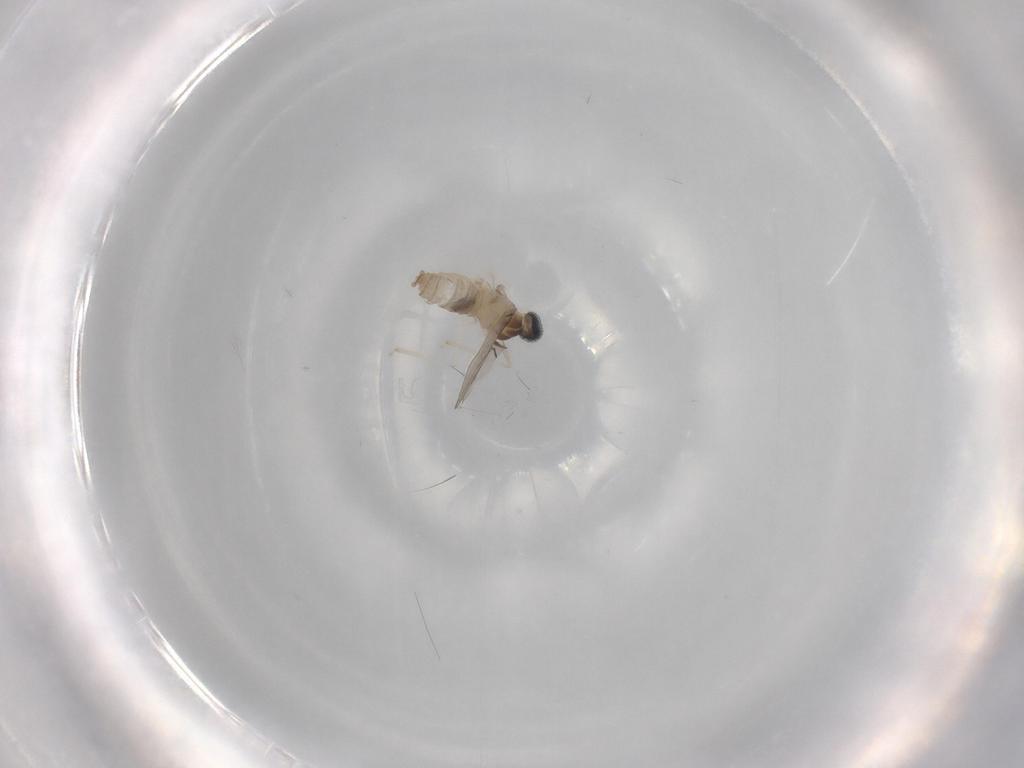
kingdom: Animalia
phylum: Arthropoda
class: Insecta
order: Diptera
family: Cecidomyiidae
